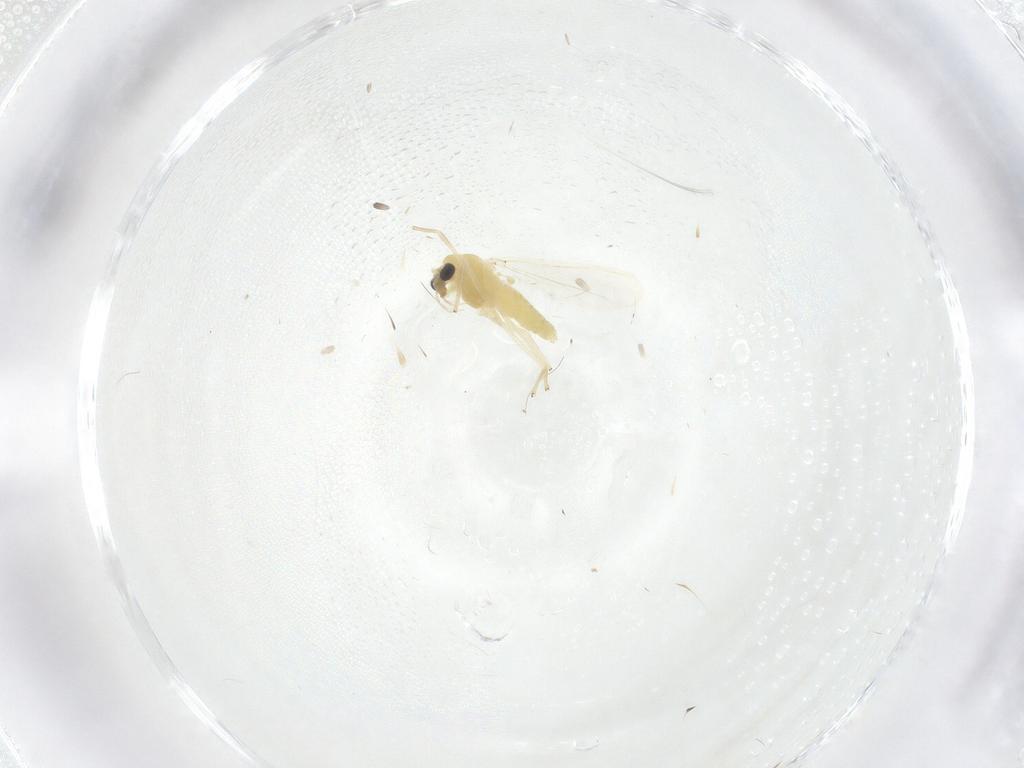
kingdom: Animalia
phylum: Arthropoda
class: Insecta
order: Diptera
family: Chironomidae
